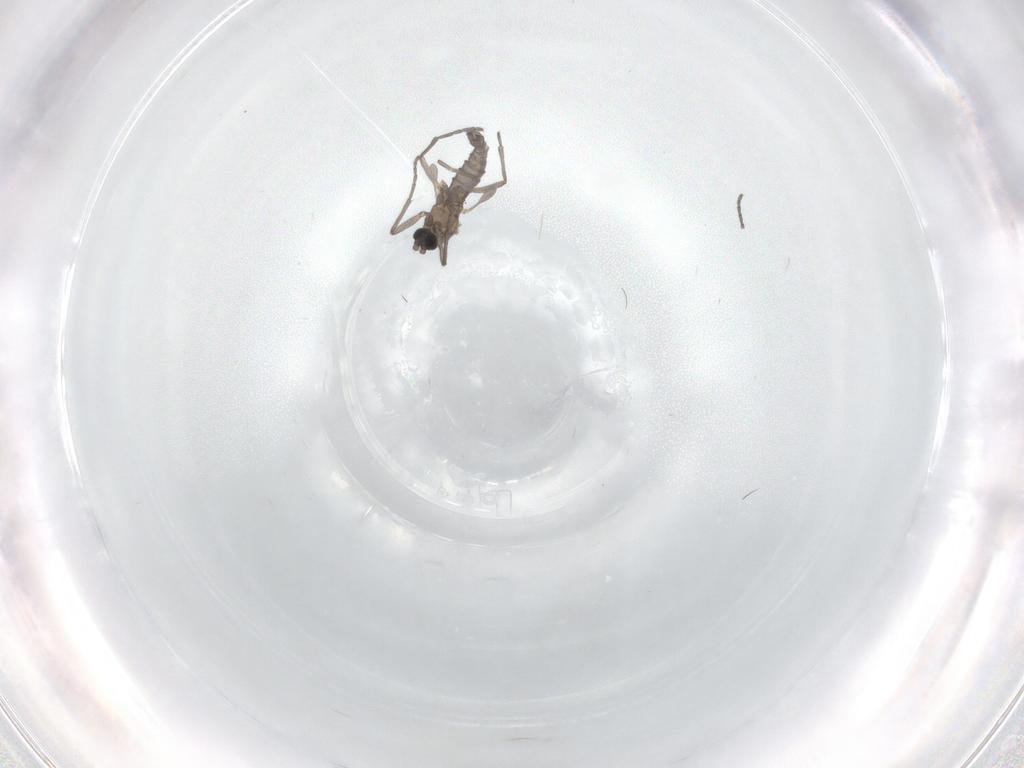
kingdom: Animalia
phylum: Arthropoda
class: Insecta
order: Diptera
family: Sciaridae
